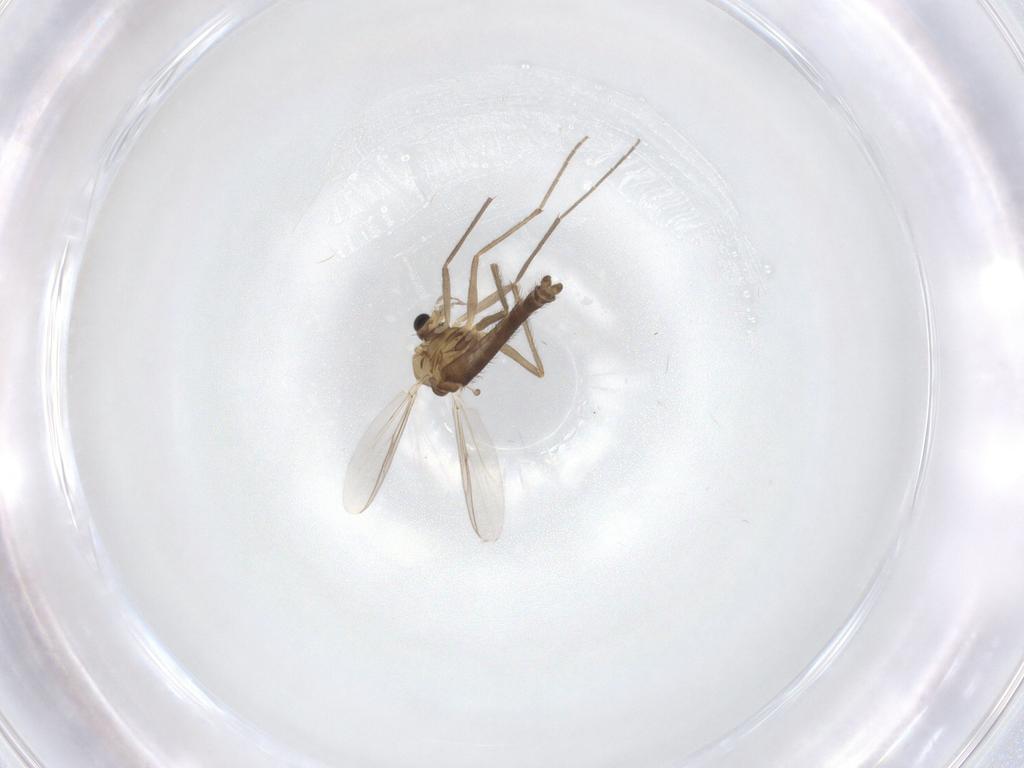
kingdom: Animalia
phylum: Arthropoda
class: Insecta
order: Diptera
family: Chironomidae
